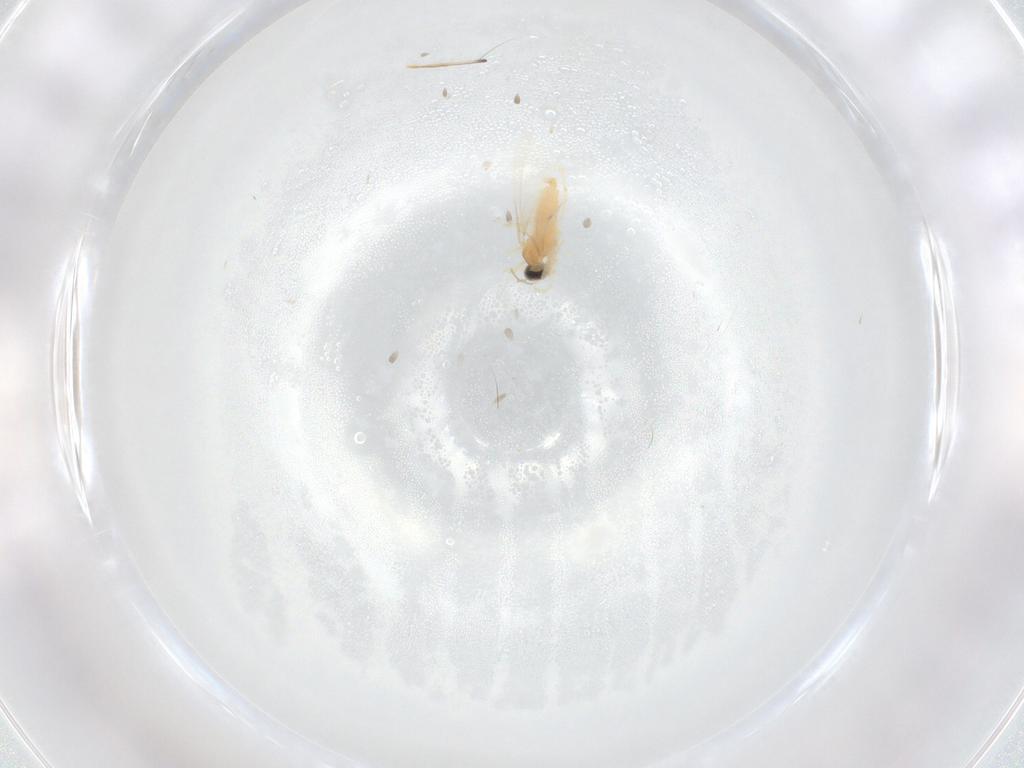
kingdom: Animalia
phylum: Arthropoda
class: Insecta
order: Diptera
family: Cecidomyiidae
